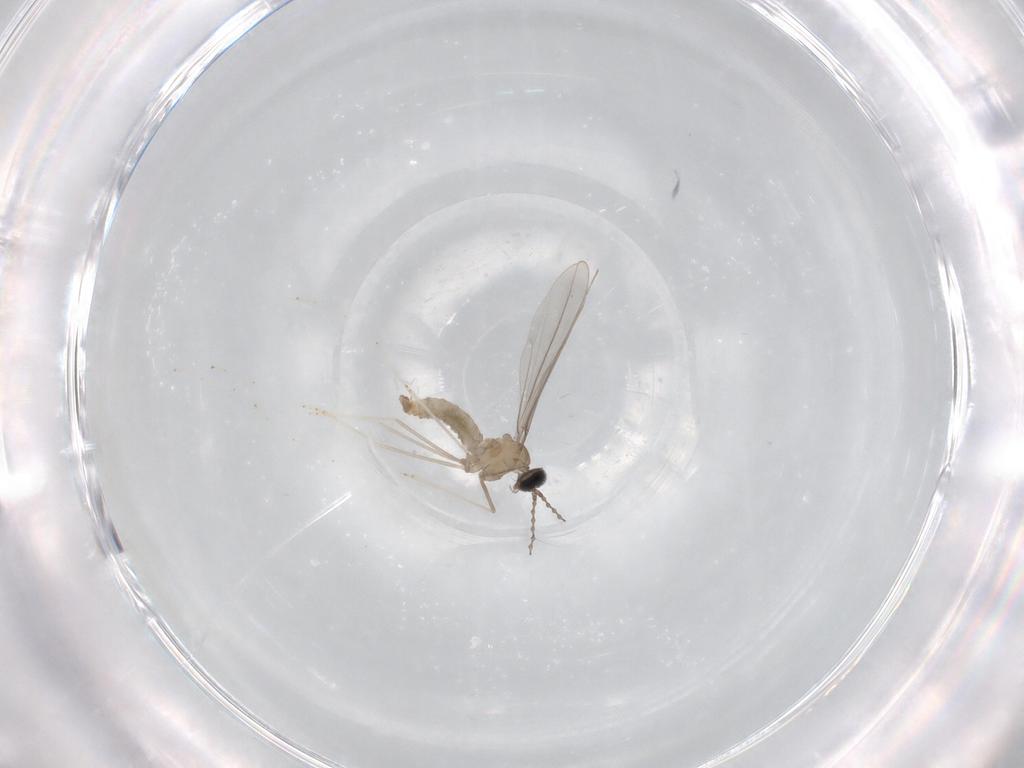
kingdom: Animalia
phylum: Arthropoda
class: Insecta
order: Diptera
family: Cecidomyiidae
